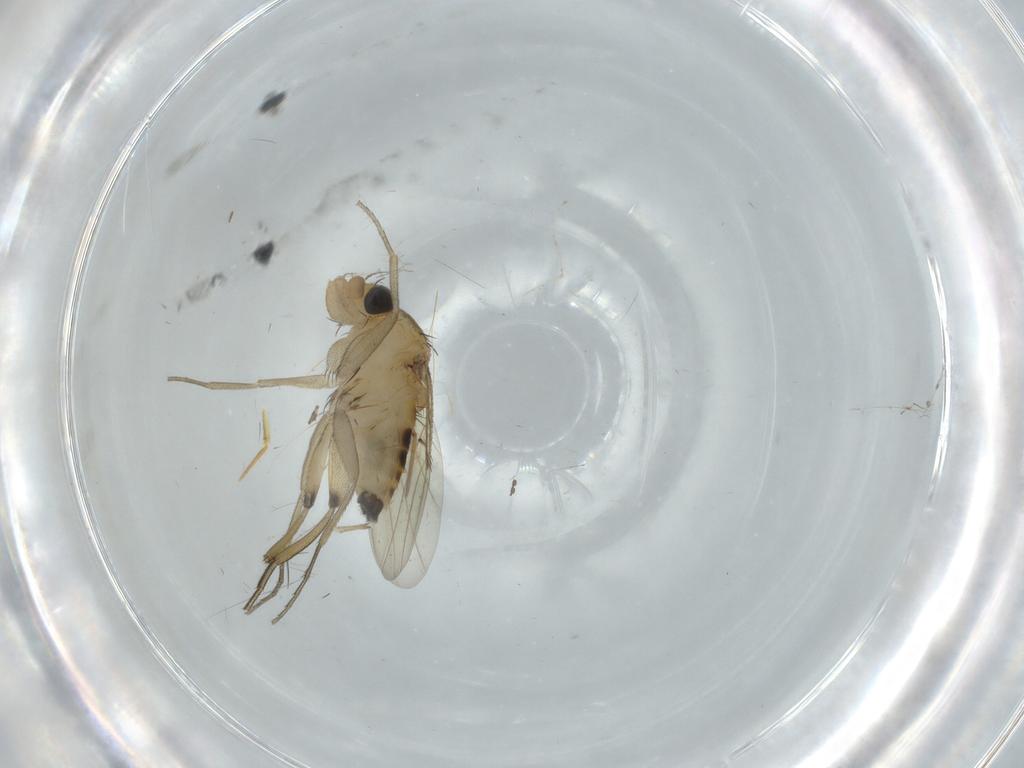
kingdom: Animalia
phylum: Arthropoda
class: Insecta
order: Diptera
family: Phoridae
